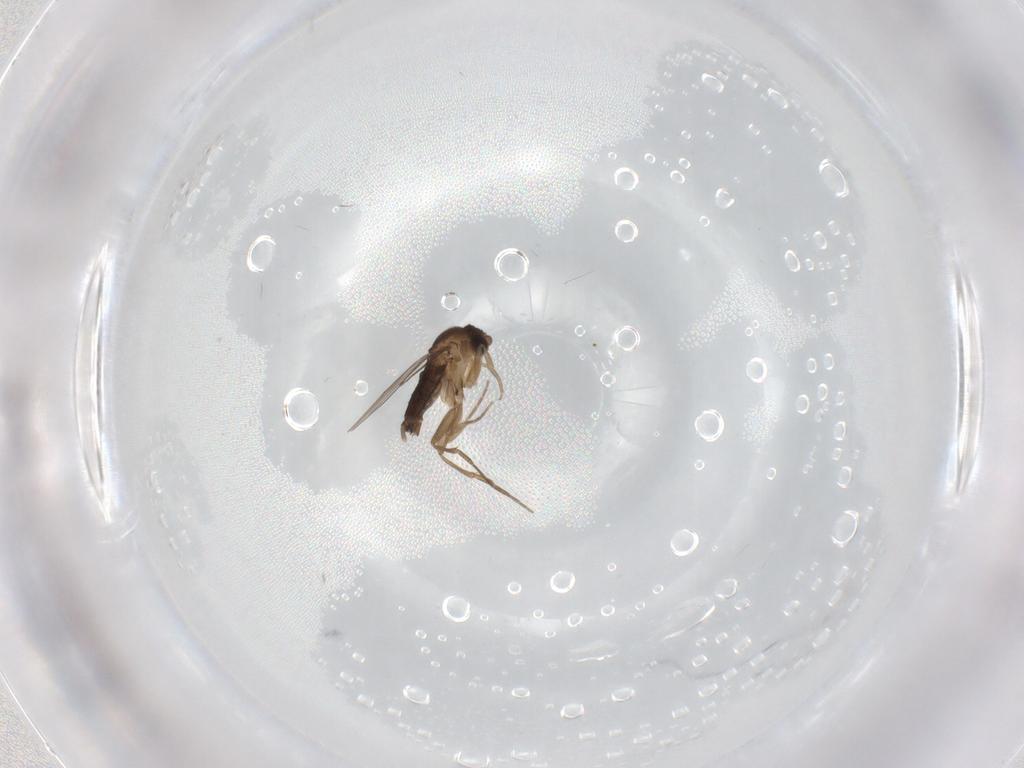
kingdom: Animalia
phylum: Arthropoda
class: Insecta
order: Diptera
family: Phoridae
